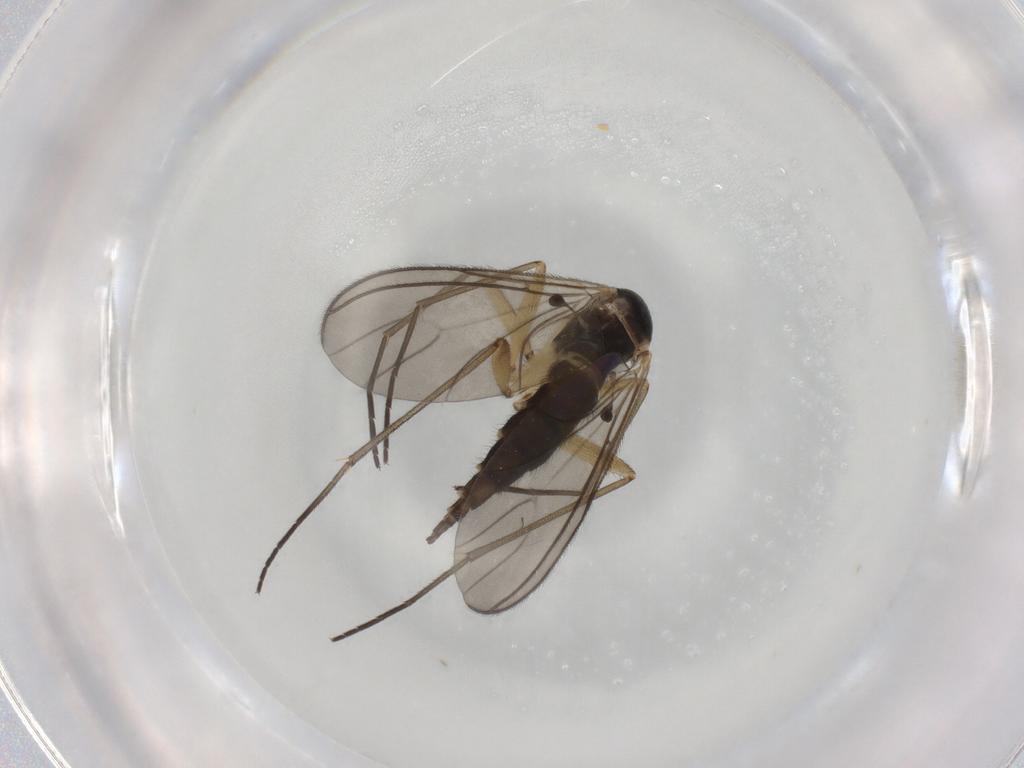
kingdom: Animalia
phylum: Arthropoda
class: Insecta
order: Diptera
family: Sciaridae
